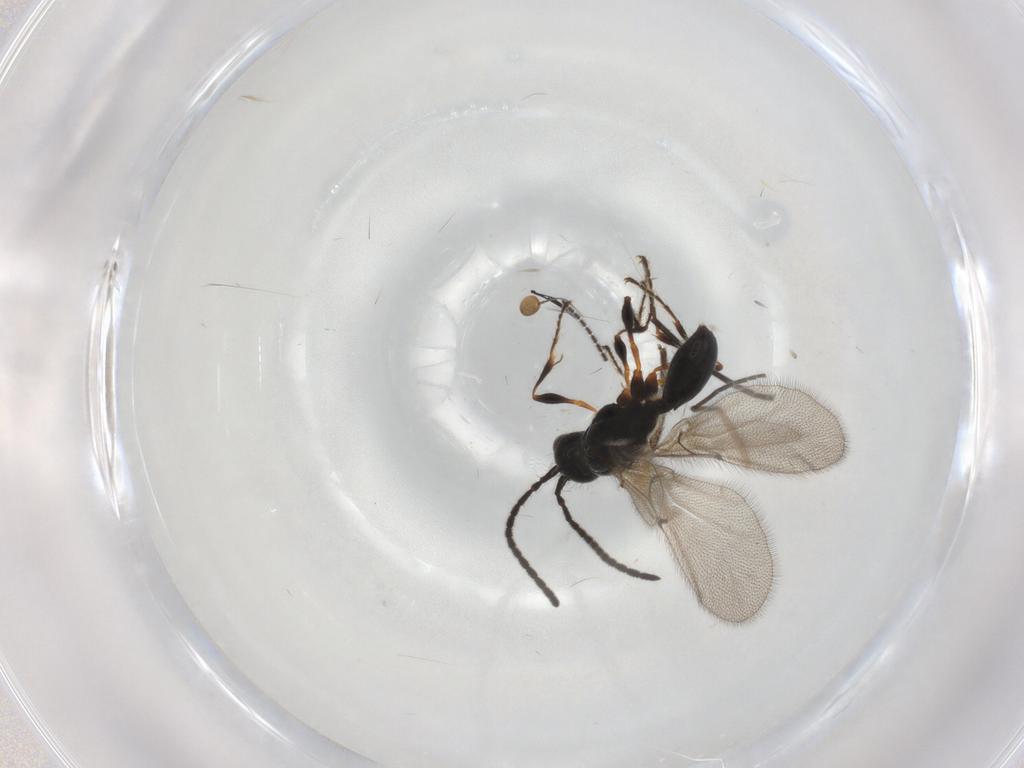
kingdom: Animalia
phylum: Arthropoda
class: Insecta
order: Hymenoptera
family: Diapriidae
